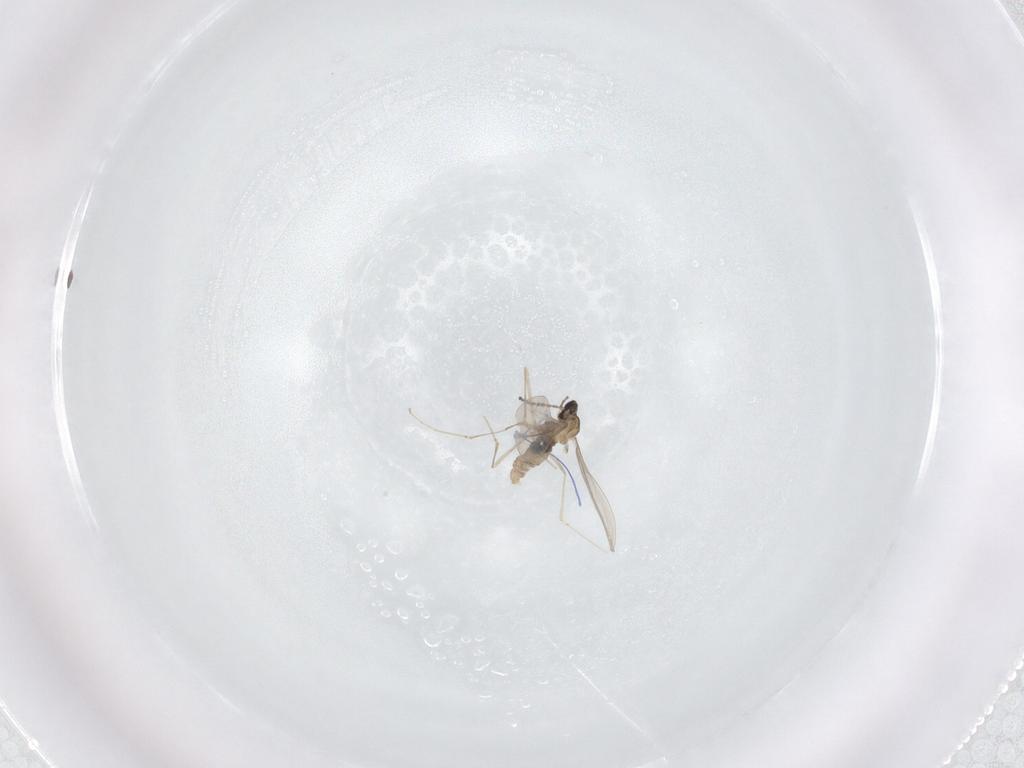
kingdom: Animalia
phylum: Arthropoda
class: Insecta
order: Diptera
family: Cecidomyiidae
